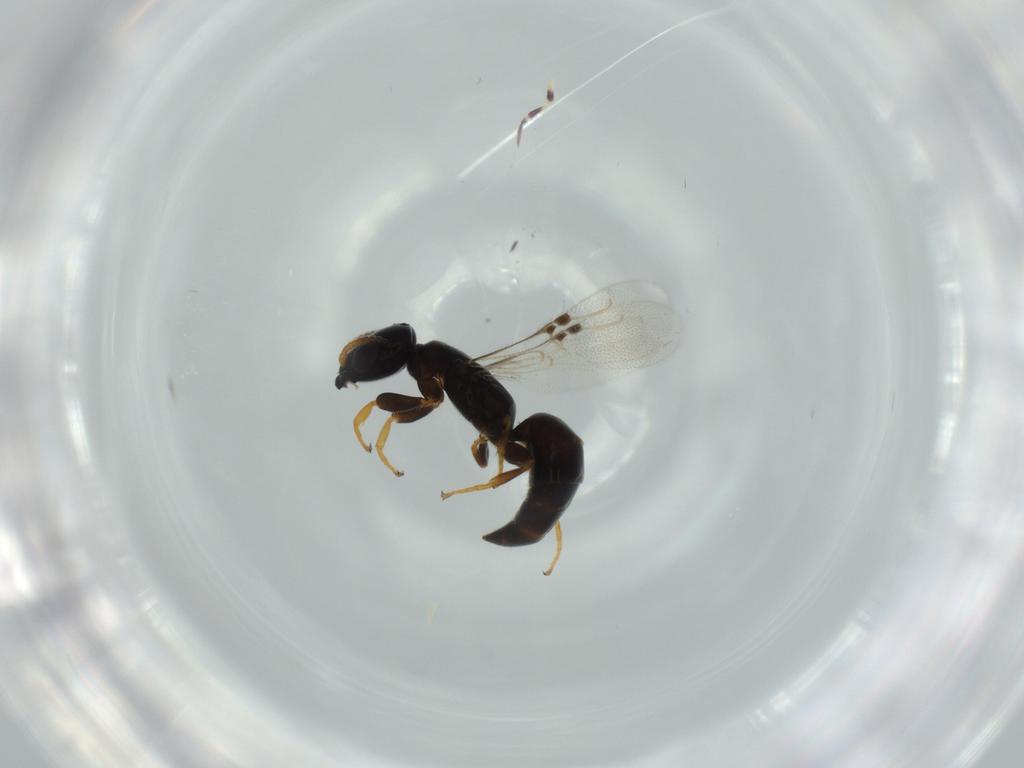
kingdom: Animalia
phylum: Arthropoda
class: Insecta
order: Hymenoptera
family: Bethylidae
